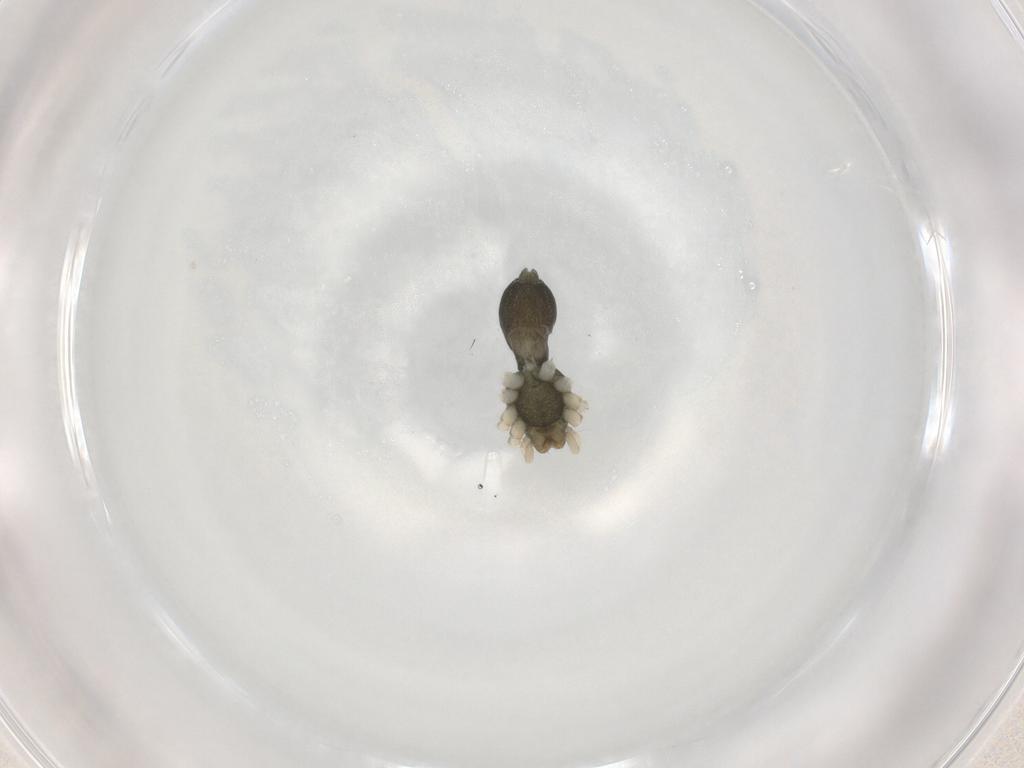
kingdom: Animalia
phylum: Arthropoda
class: Arachnida
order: Araneae
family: Trachelidae
